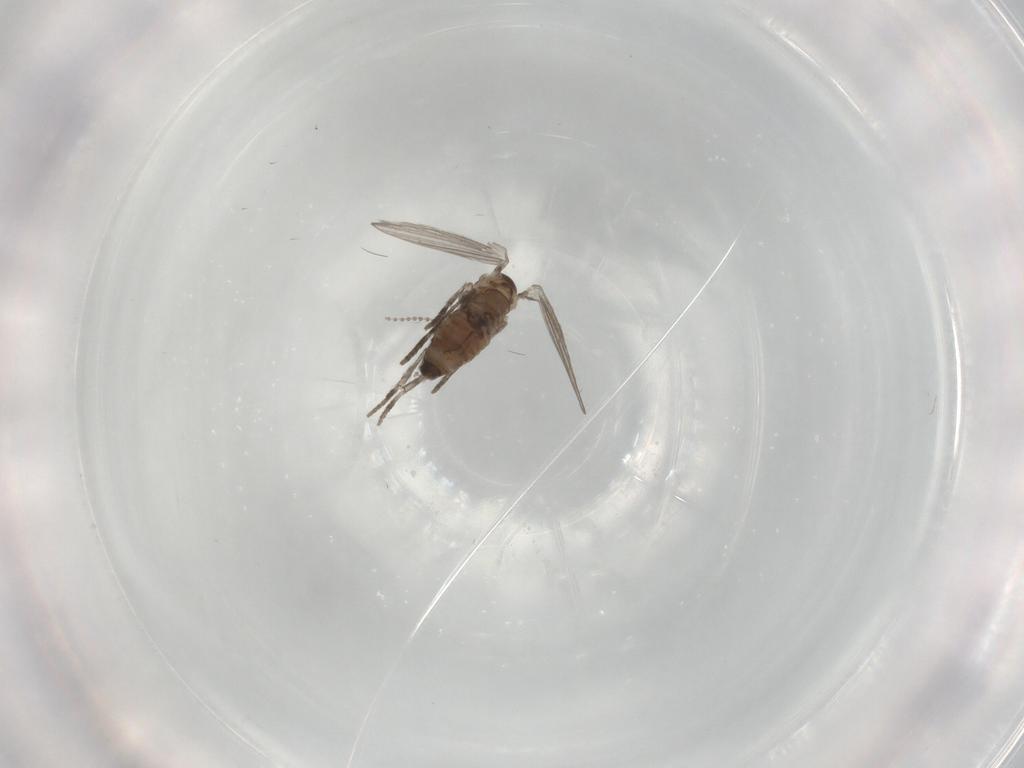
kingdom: Animalia
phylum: Arthropoda
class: Insecta
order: Diptera
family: Psychodidae
